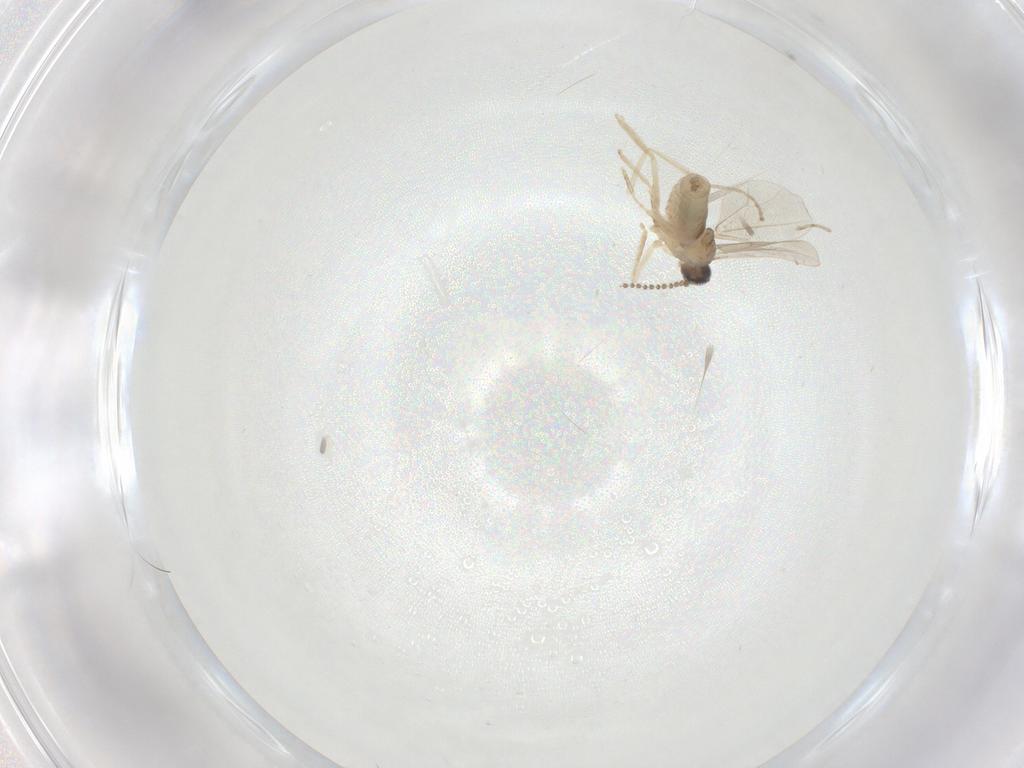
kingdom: Animalia
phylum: Arthropoda
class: Insecta
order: Diptera
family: Cecidomyiidae
